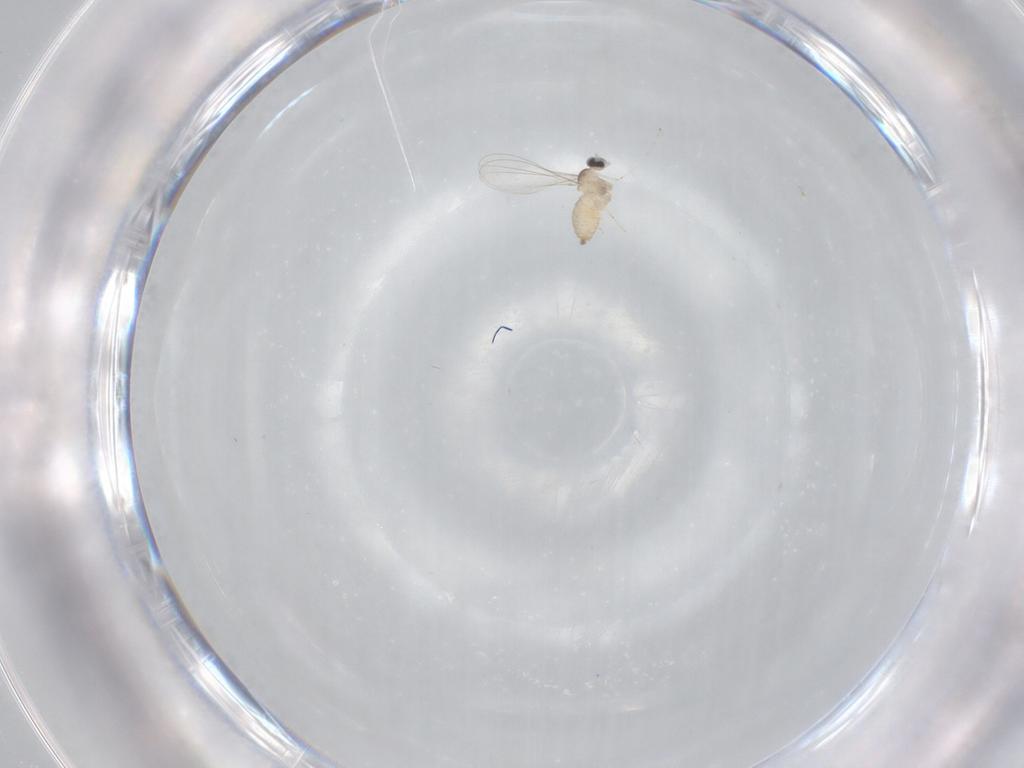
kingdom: Animalia
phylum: Arthropoda
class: Insecta
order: Diptera
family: Cecidomyiidae
